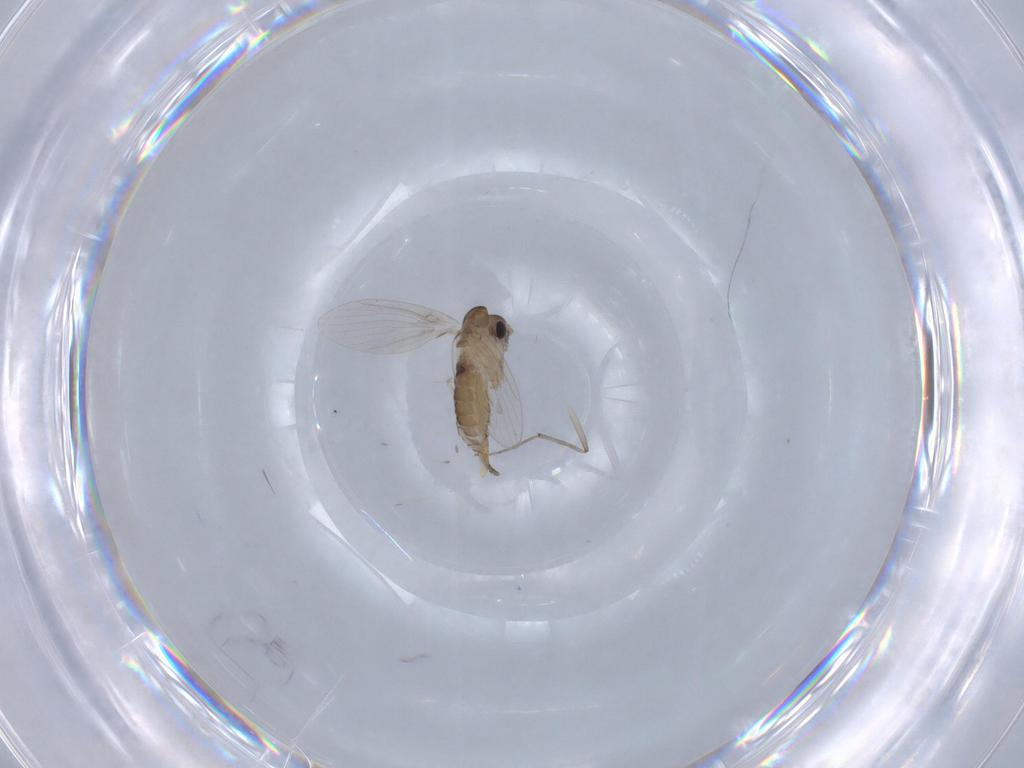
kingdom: Animalia
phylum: Arthropoda
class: Insecta
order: Diptera
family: Psychodidae
